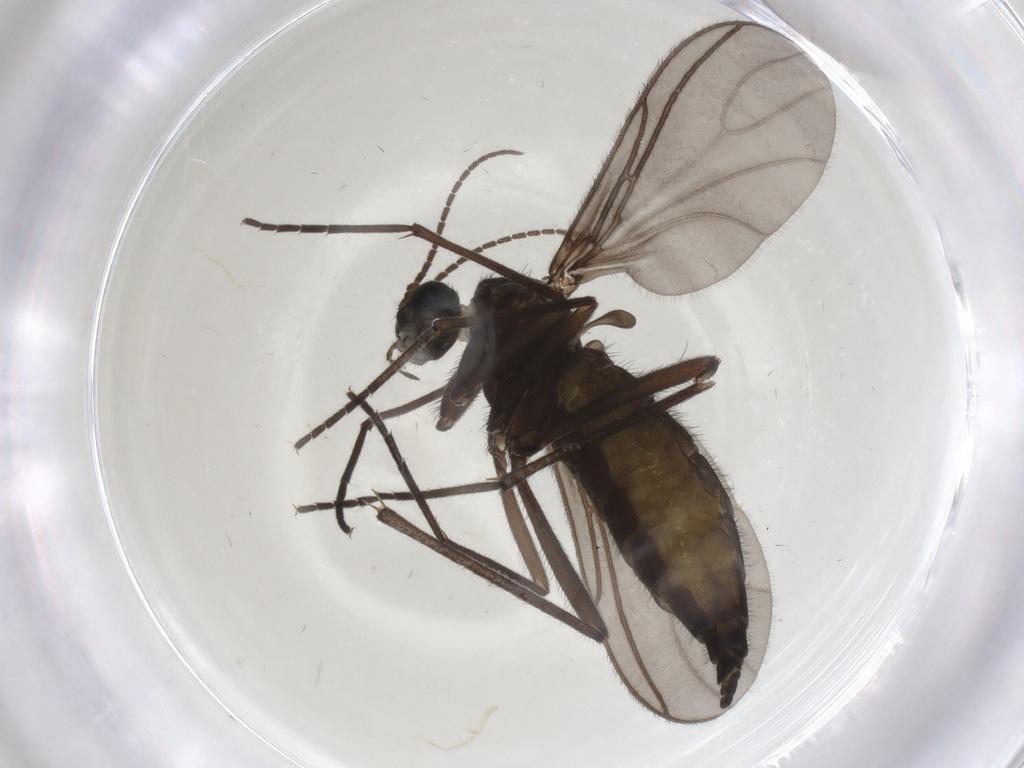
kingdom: Animalia
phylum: Arthropoda
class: Insecta
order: Diptera
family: Sciaridae
